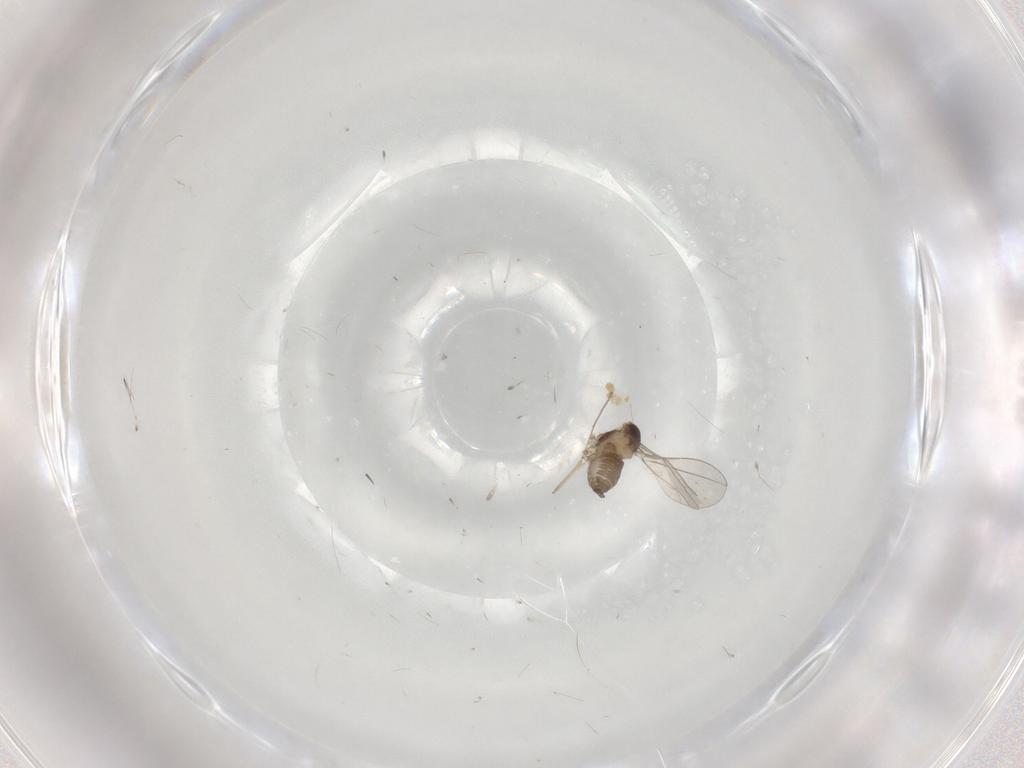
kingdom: Animalia
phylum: Arthropoda
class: Insecta
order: Diptera
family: Cecidomyiidae
